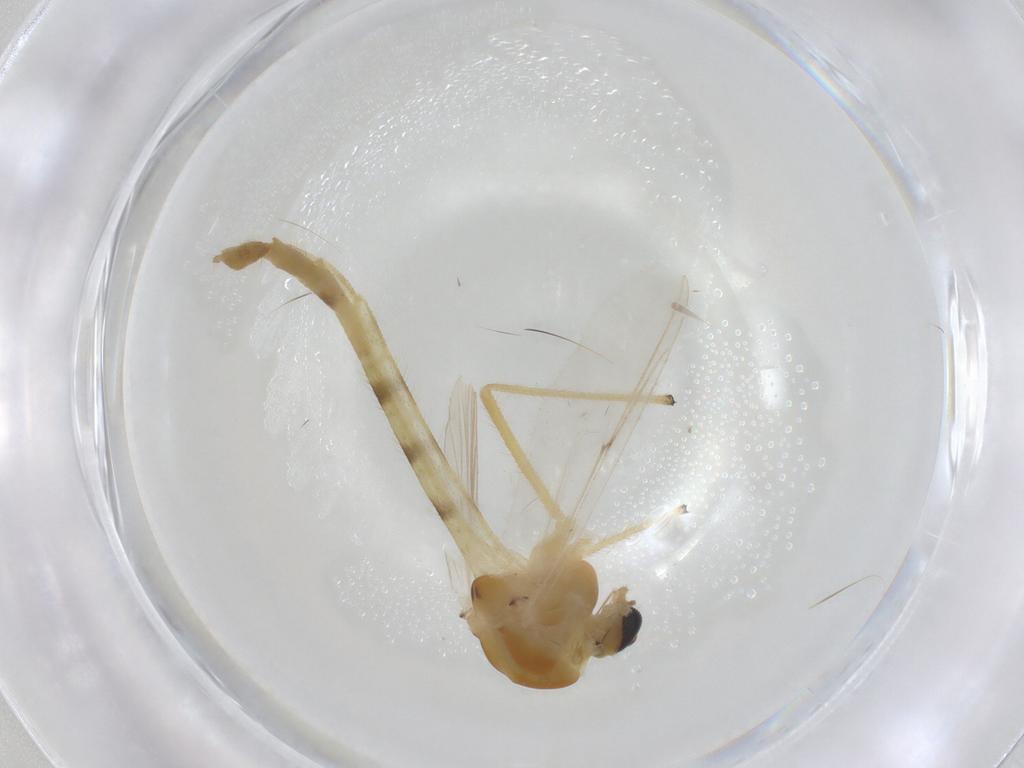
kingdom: Animalia
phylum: Arthropoda
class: Insecta
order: Diptera
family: Chironomidae
